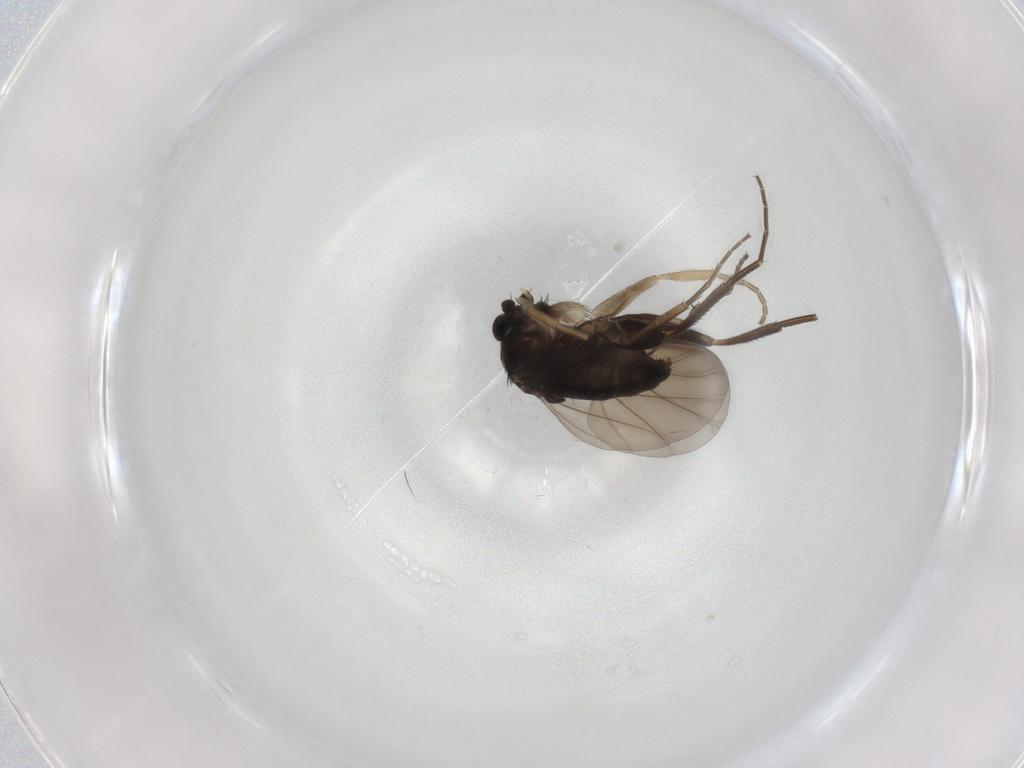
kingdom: Animalia
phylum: Arthropoda
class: Insecta
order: Diptera
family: Phoridae
